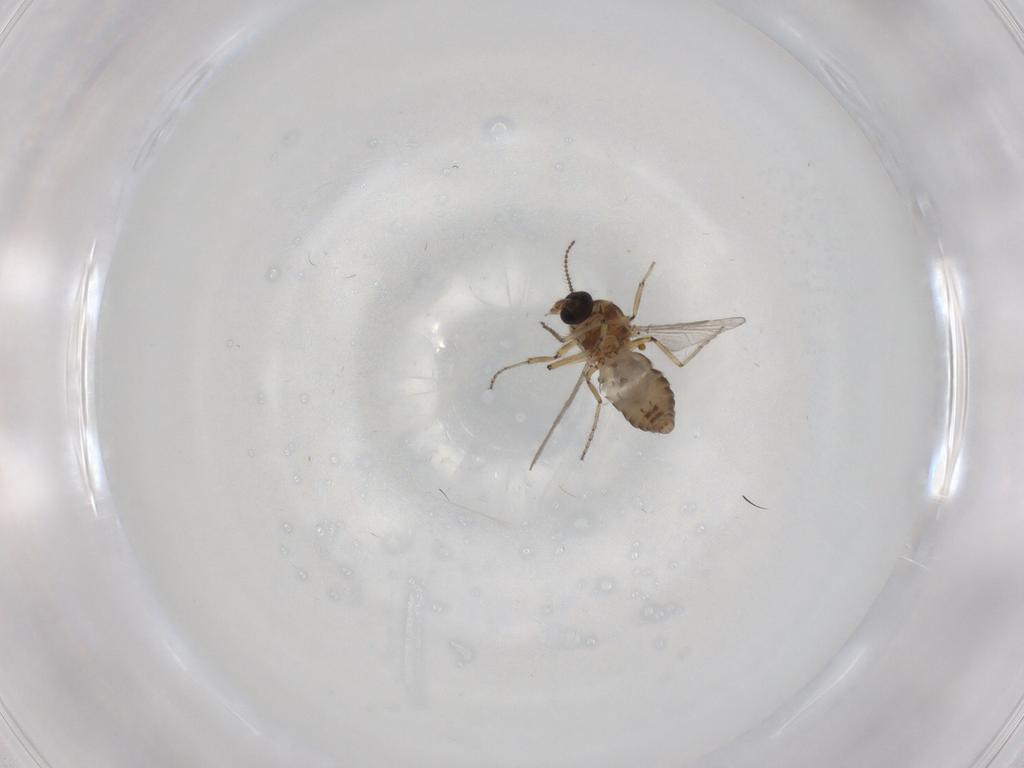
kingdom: Animalia
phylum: Arthropoda
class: Insecta
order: Diptera
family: Ceratopogonidae
